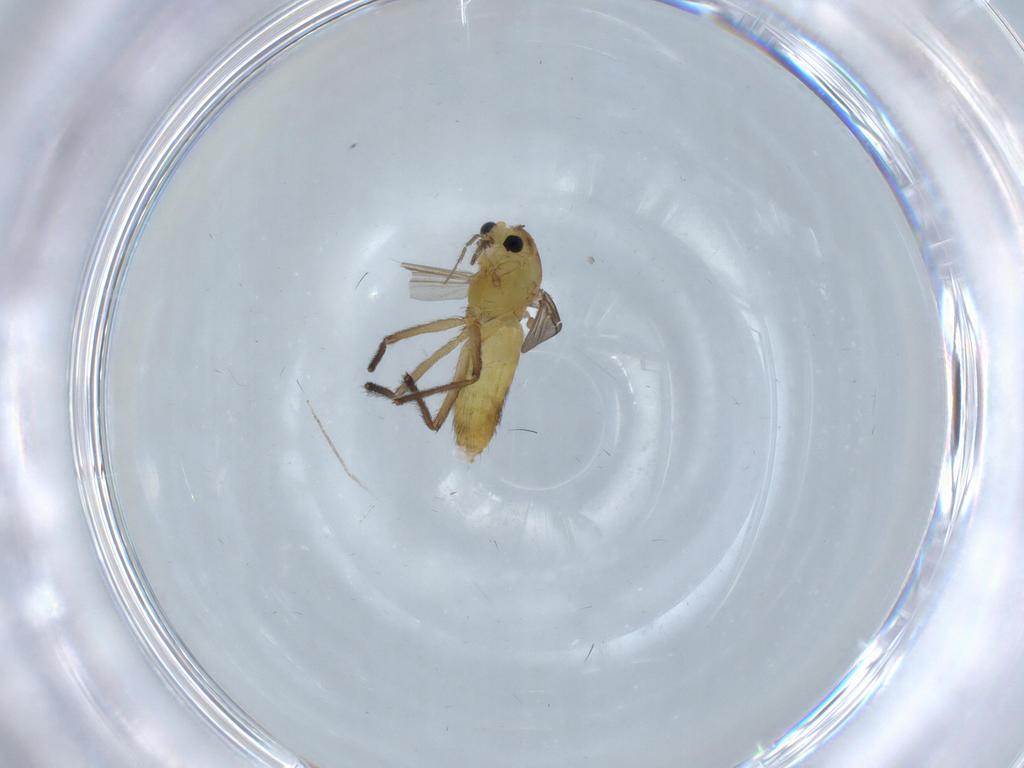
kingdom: Animalia
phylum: Arthropoda
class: Insecta
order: Diptera
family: Chironomidae
